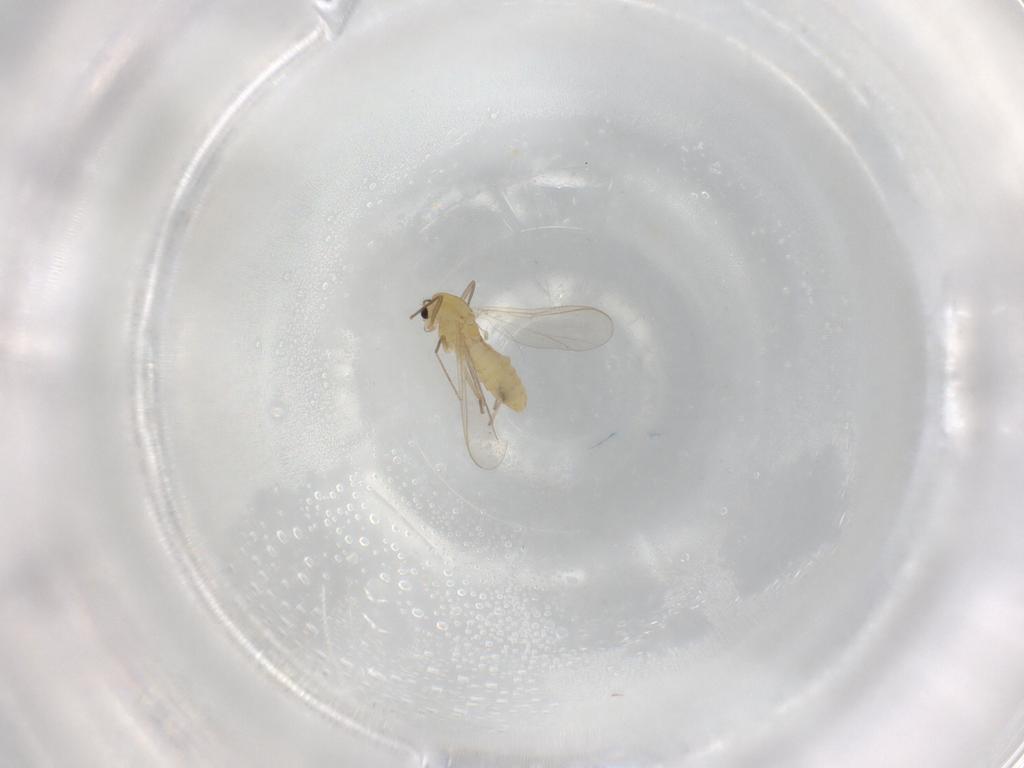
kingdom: Animalia
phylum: Arthropoda
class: Insecta
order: Diptera
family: Chironomidae
